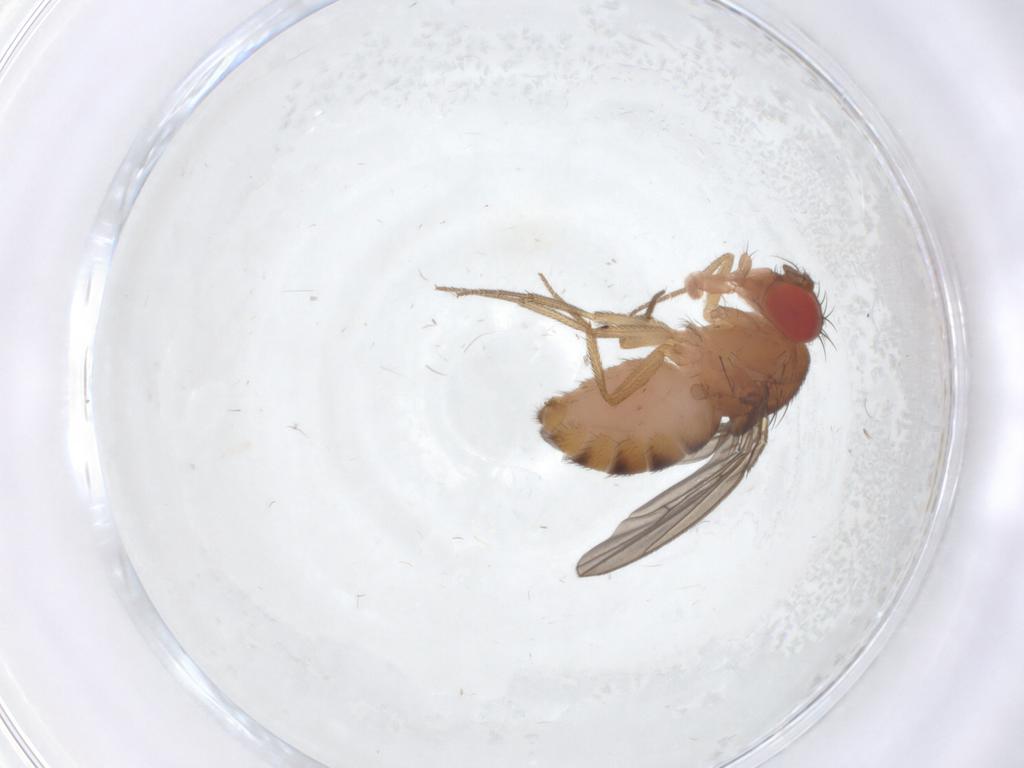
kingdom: Animalia
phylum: Arthropoda
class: Insecta
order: Diptera
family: Drosophilidae
